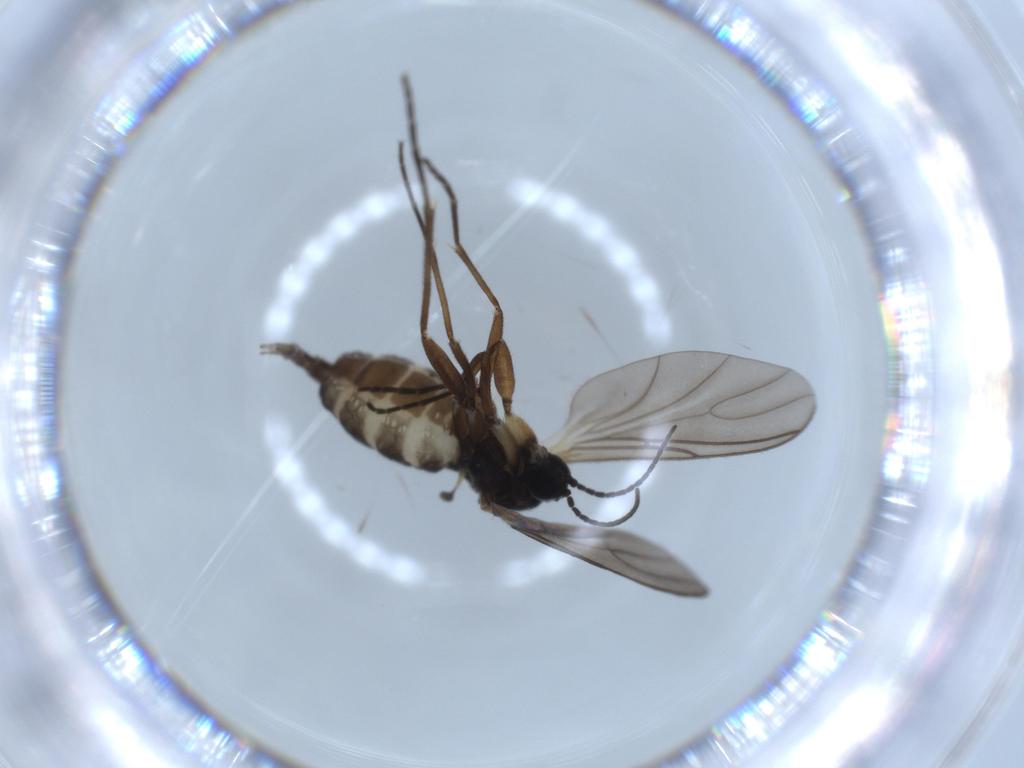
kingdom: Animalia
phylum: Arthropoda
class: Insecta
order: Diptera
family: Sciaridae
